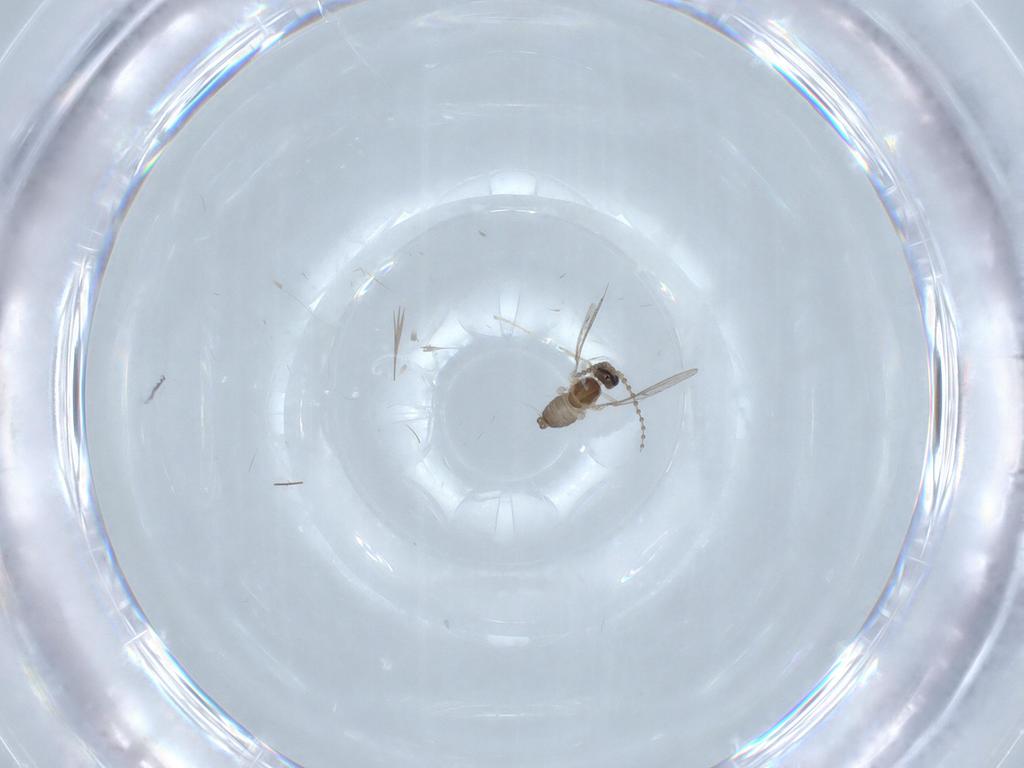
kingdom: Animalia
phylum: Arthropoda
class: Insecta
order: Diptera
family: Cecidomyiidae
